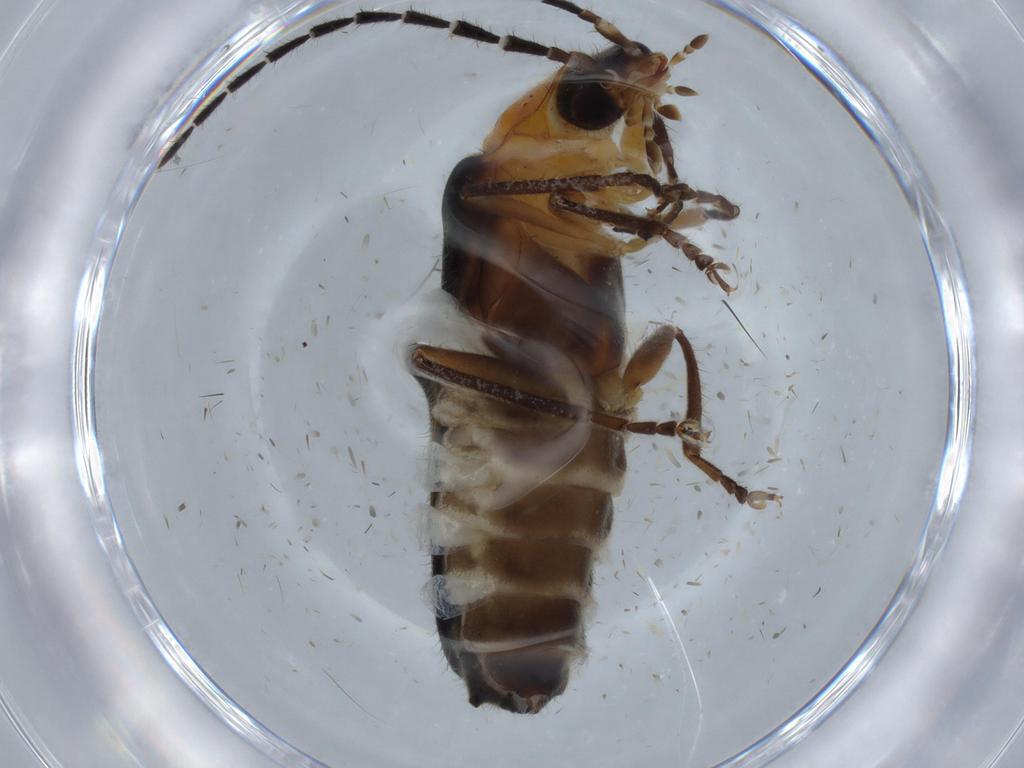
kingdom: Animalia
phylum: Arthropoda
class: Insecta
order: Coleoptera
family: Cantharidae
